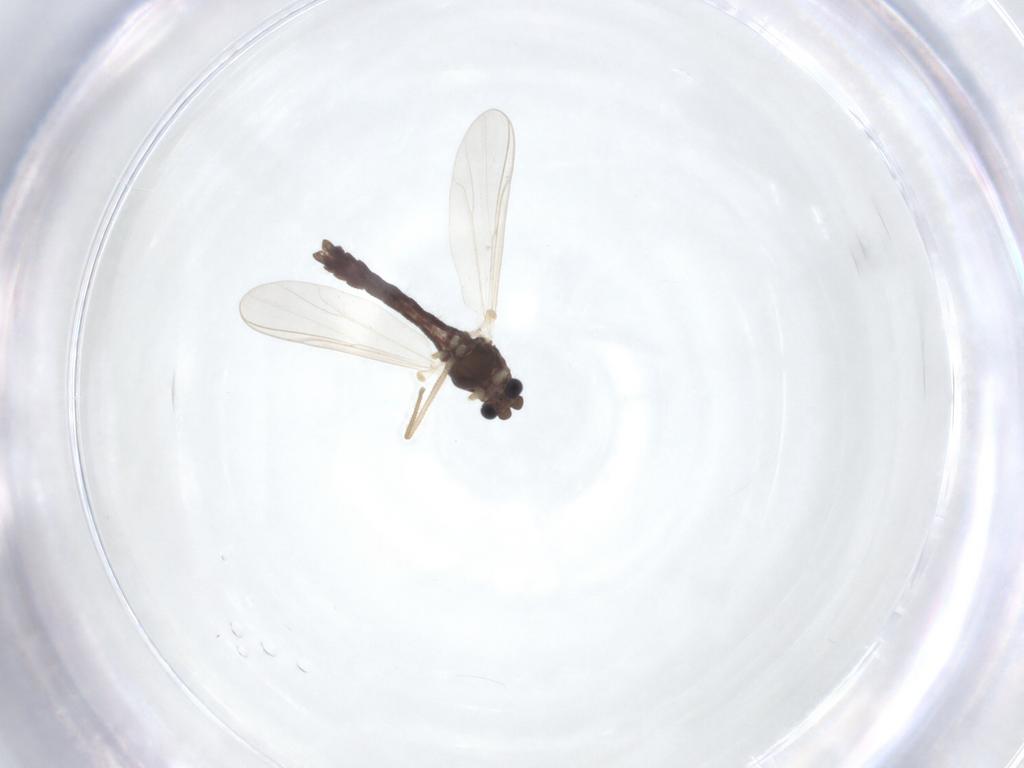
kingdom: Animalia
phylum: Arthropoda
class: Insecta
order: Diptera
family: Chironomidae
